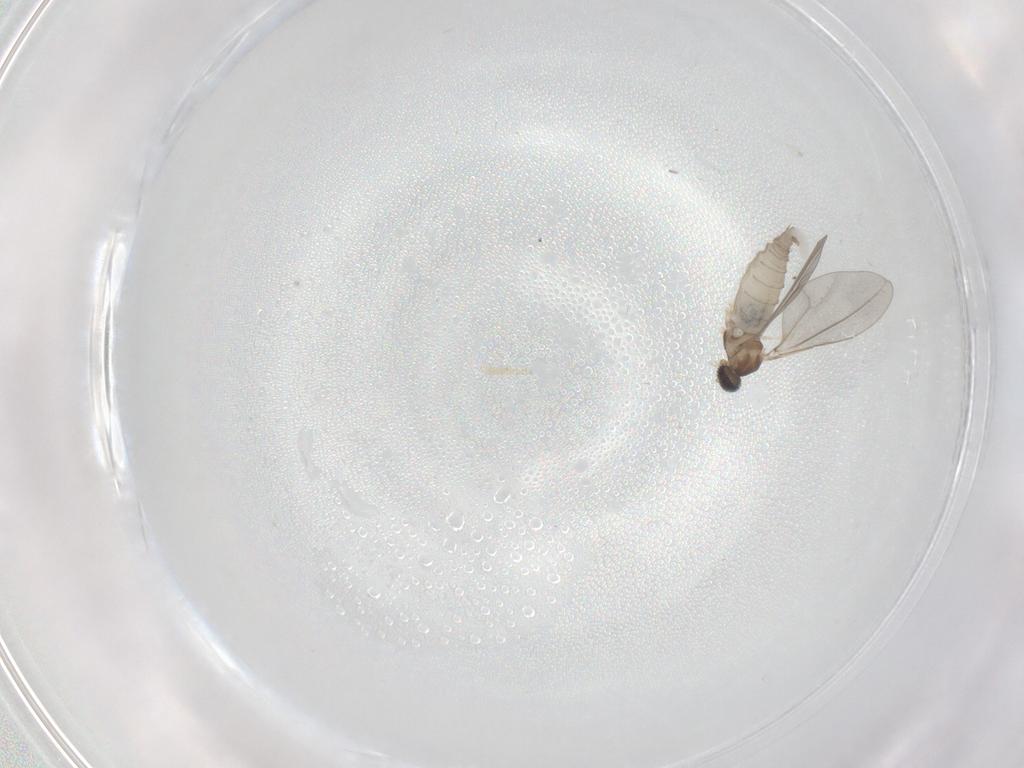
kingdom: Animalia
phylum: Arthropoda
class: Insecta
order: Diptera
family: Cecidomyiidae
